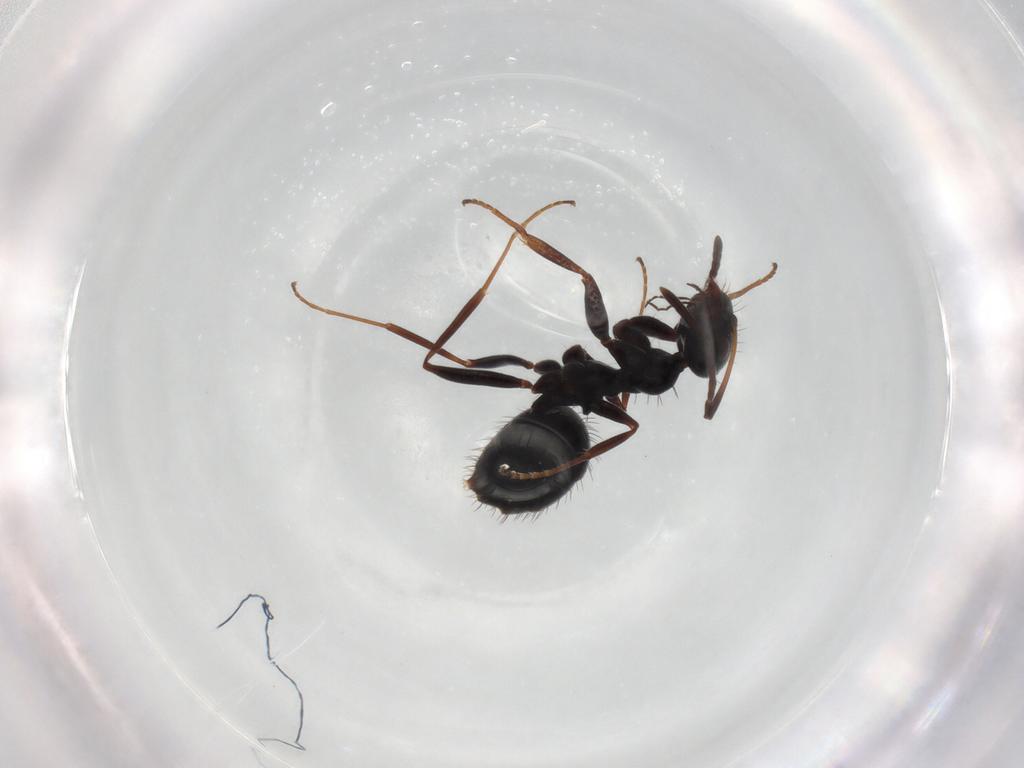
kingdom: Animalia
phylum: Arthropoda
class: Insecta
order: Hymenoptera
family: Formicidae
